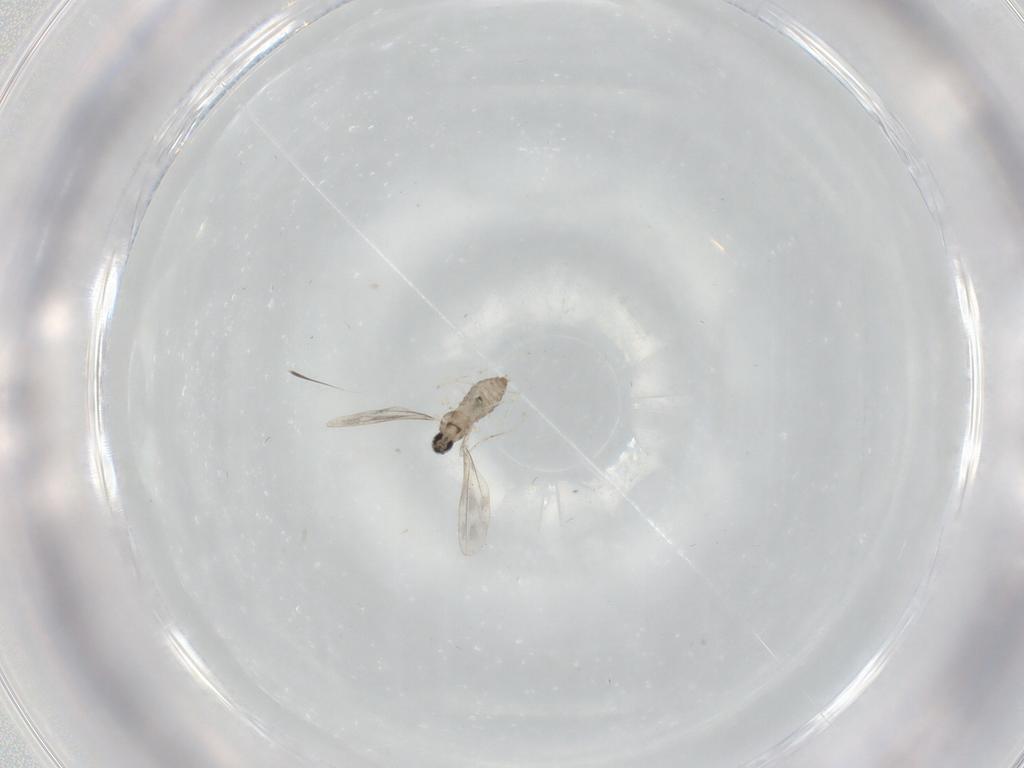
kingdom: Animalia
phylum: Arthropoda
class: Insecta
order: Diptera
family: Cecidomyiidae
